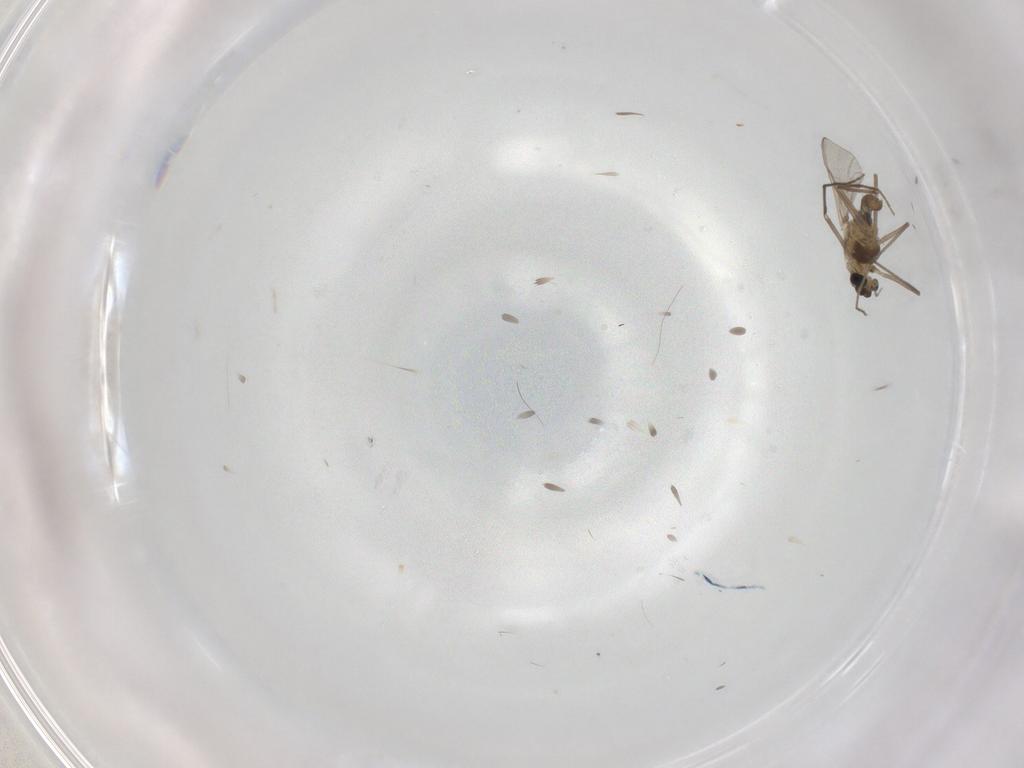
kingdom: Animalia
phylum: Arthropoda
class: Insecta
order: Diptera
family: Chironomidae
